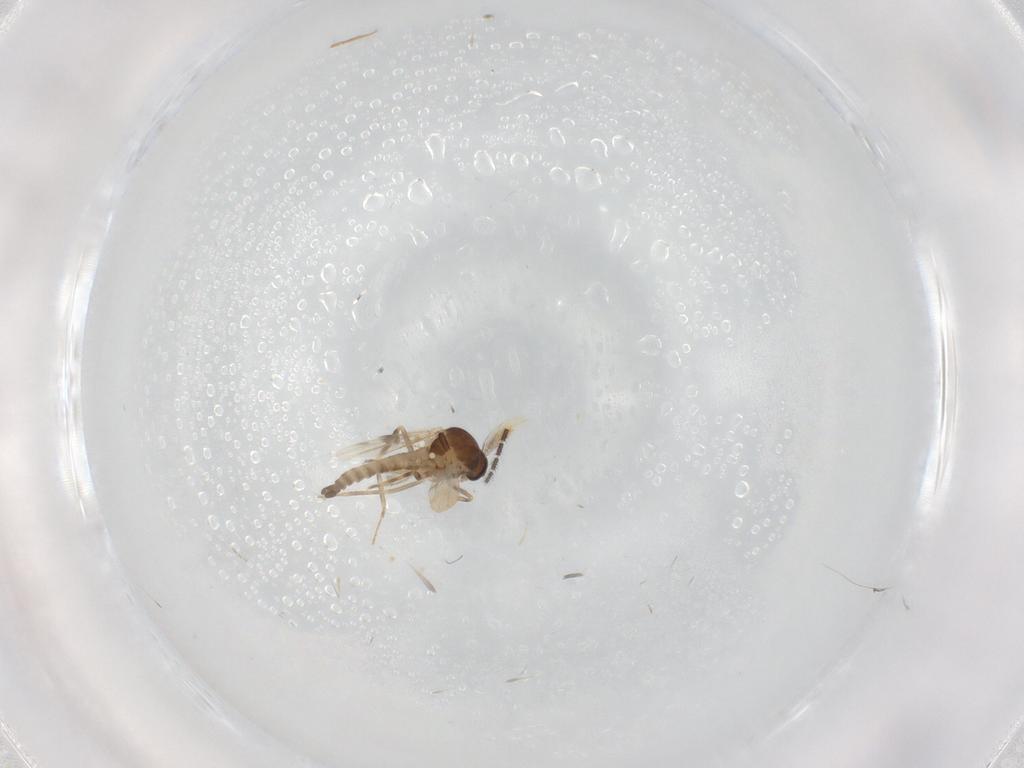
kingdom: Animalia
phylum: Arthropoda
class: Insecta
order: Diptera
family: Ceratopogonidae
